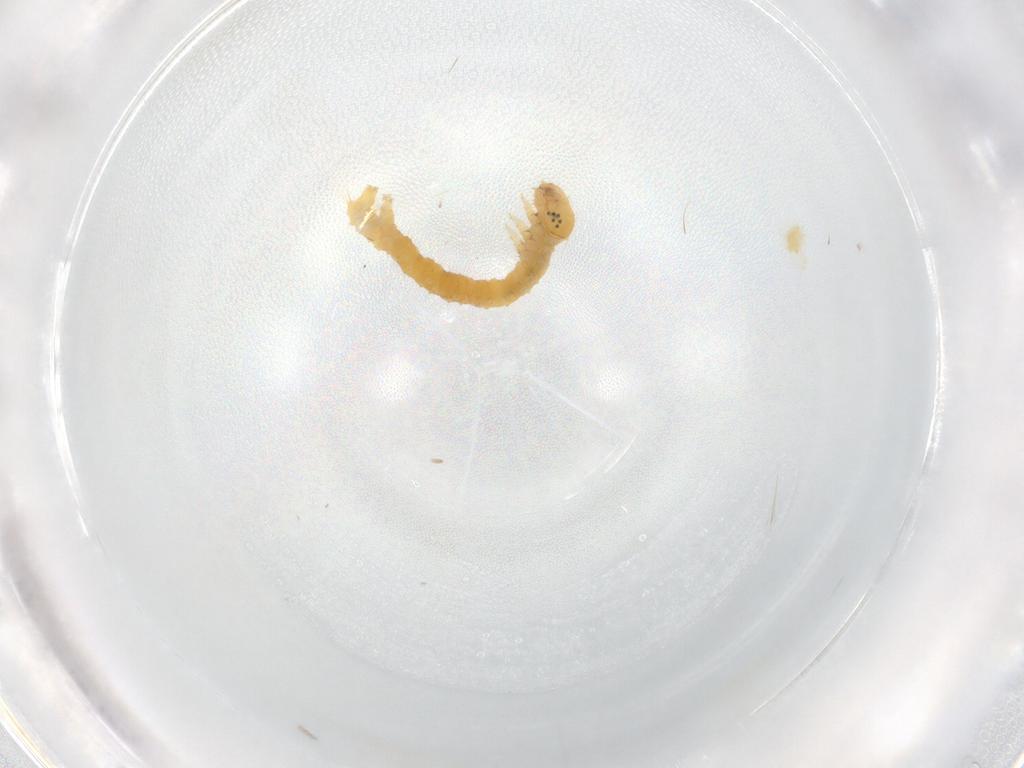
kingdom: Animalia
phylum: Arthropoda
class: Insecta
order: Lepidoptera
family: Geometridae
